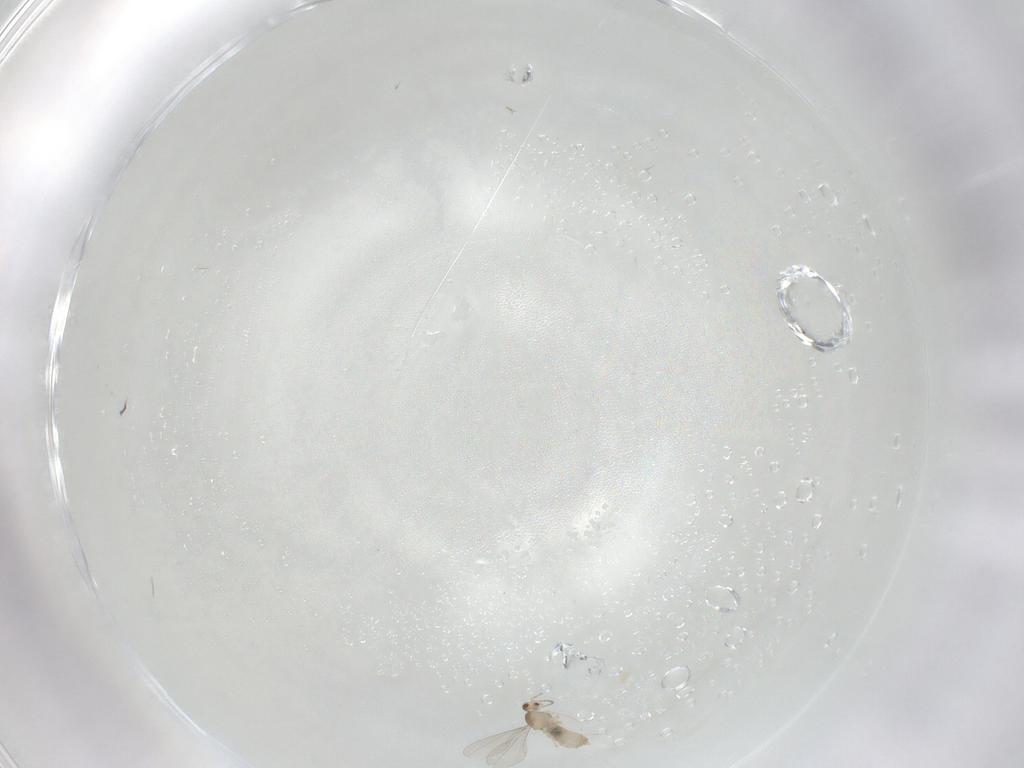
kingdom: Animalia
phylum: Arthropoda
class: Insecta
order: Diptera
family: Cecidomyiidae
